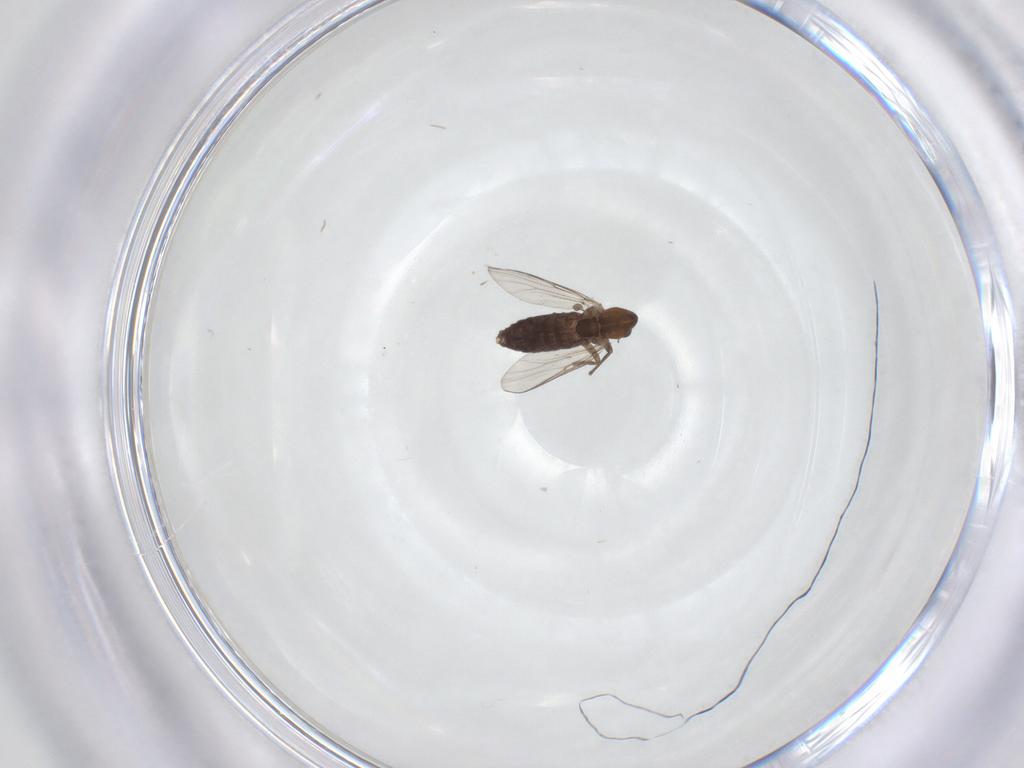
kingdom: Animalia
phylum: Arthropoda
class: Insecta
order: Diptera
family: Chironomidae
